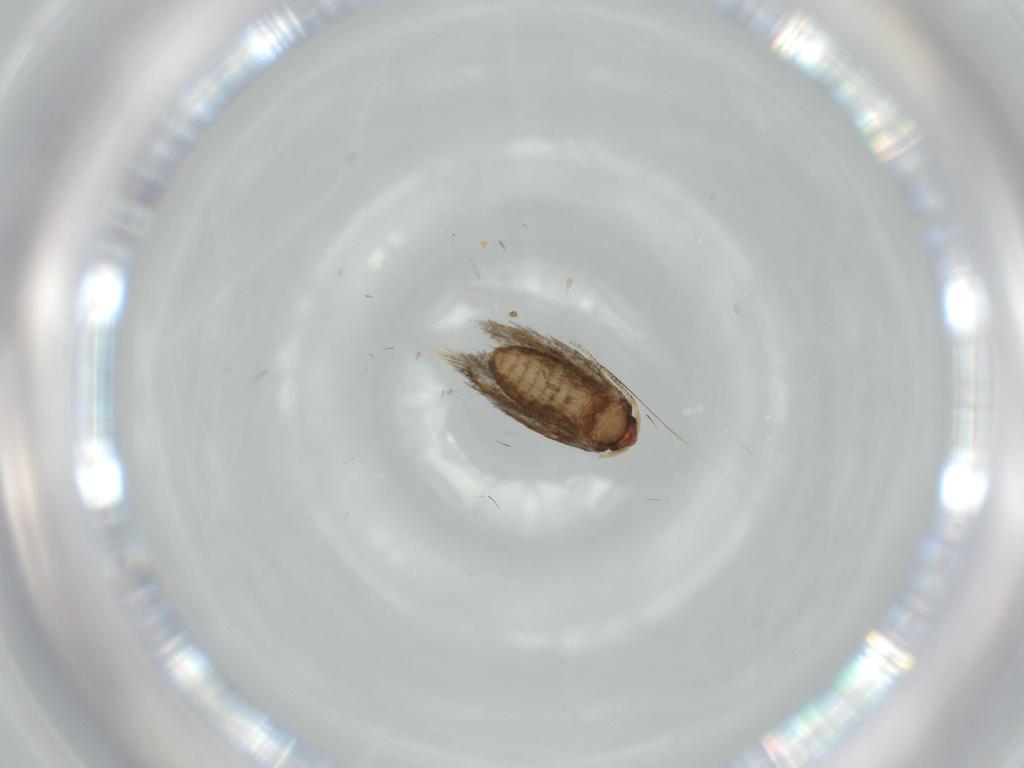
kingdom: Animalia
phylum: Arthropoda
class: Insecta
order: Lepidoptera
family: Nepticulidae
